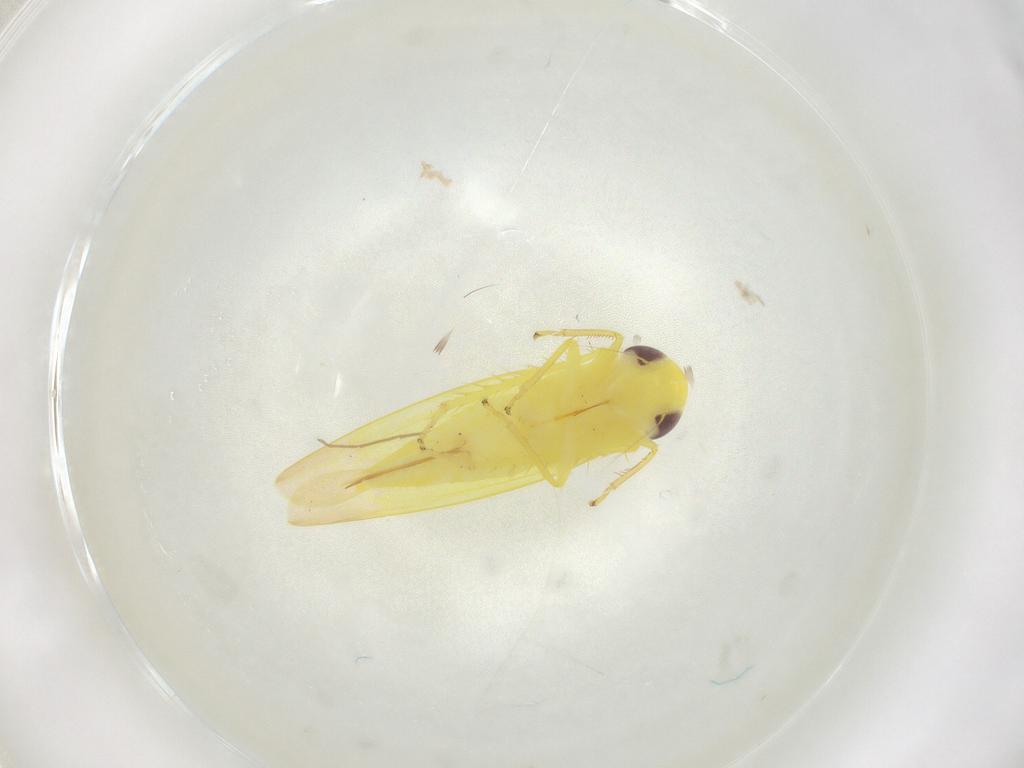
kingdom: Animalia
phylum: Arthropoda
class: Insecta
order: Hemiptera
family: Cicadellidae
